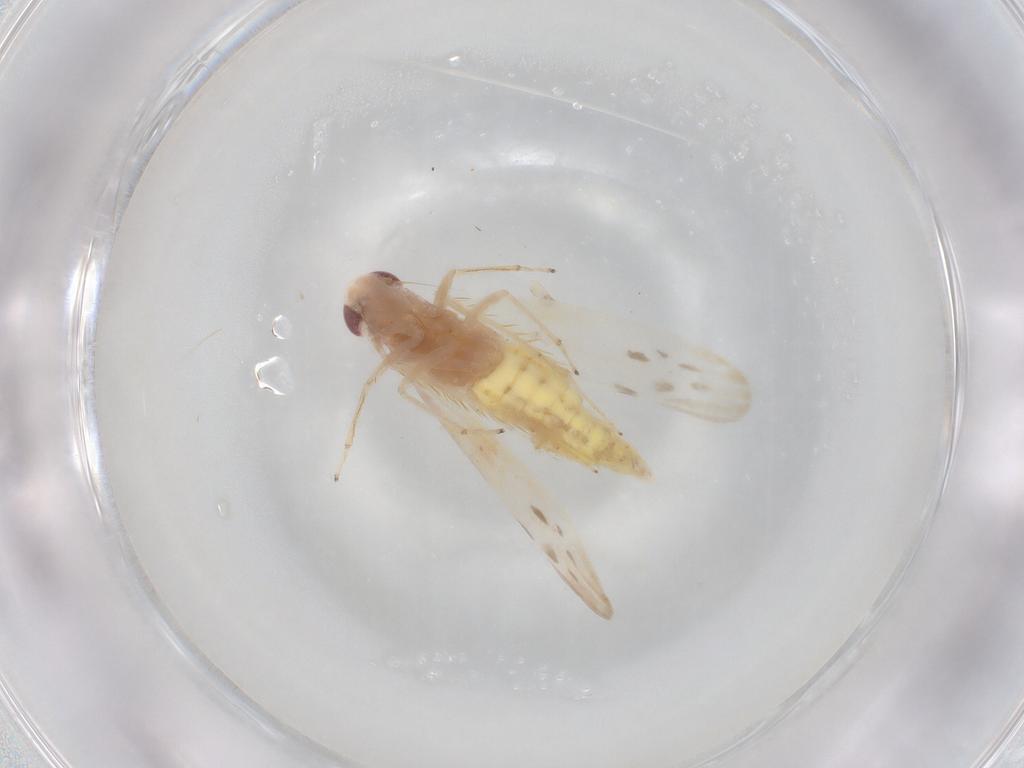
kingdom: Animalia
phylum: Arthropoda
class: Insecta
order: Hemiptera
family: Cicadellidae
